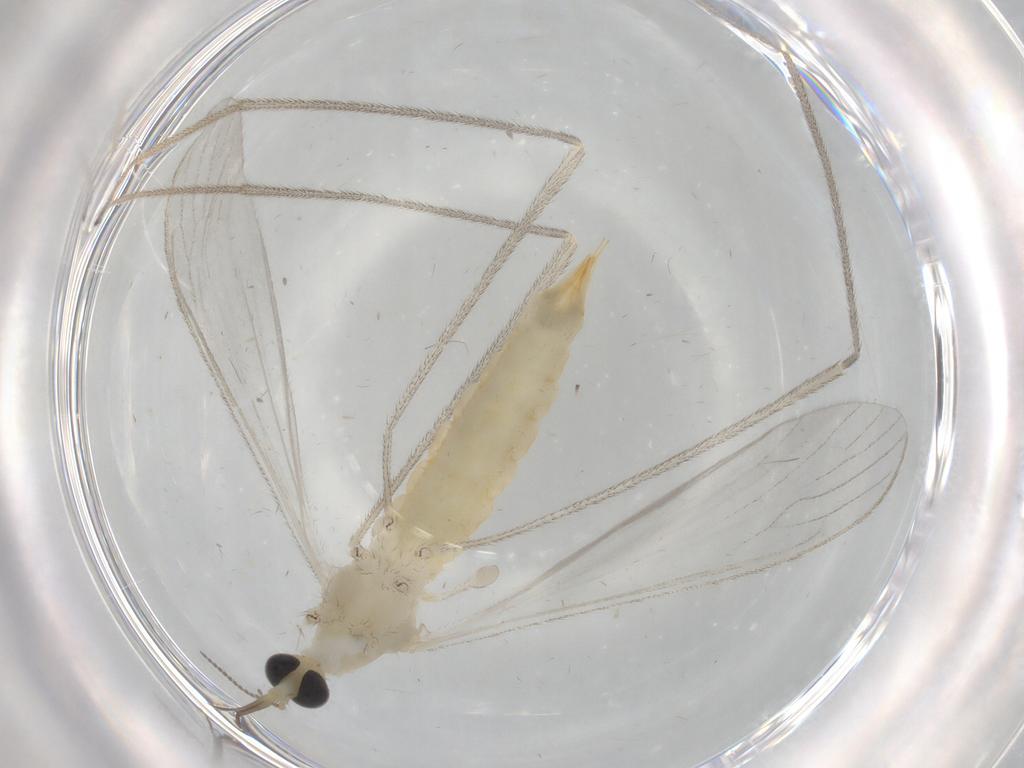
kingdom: Animalia
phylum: Arthropoda
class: Insecta
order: Diptera
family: Limoniidae
